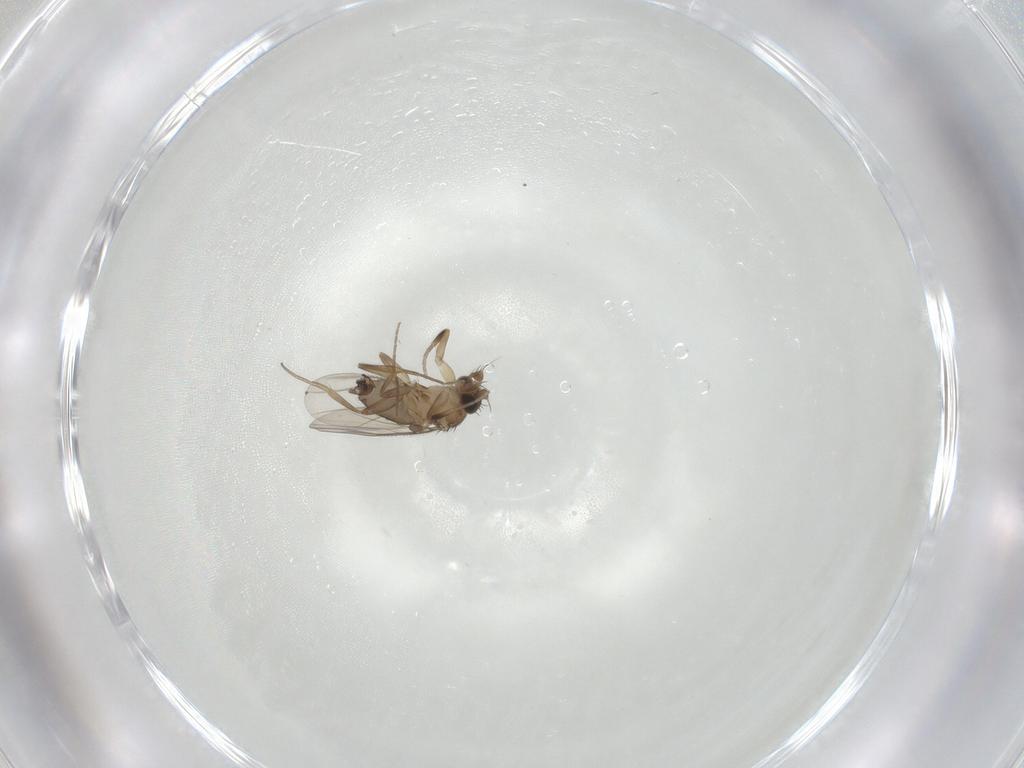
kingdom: Animalia
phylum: Arthropoda
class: Insecta
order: Diptera
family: Phoridae
